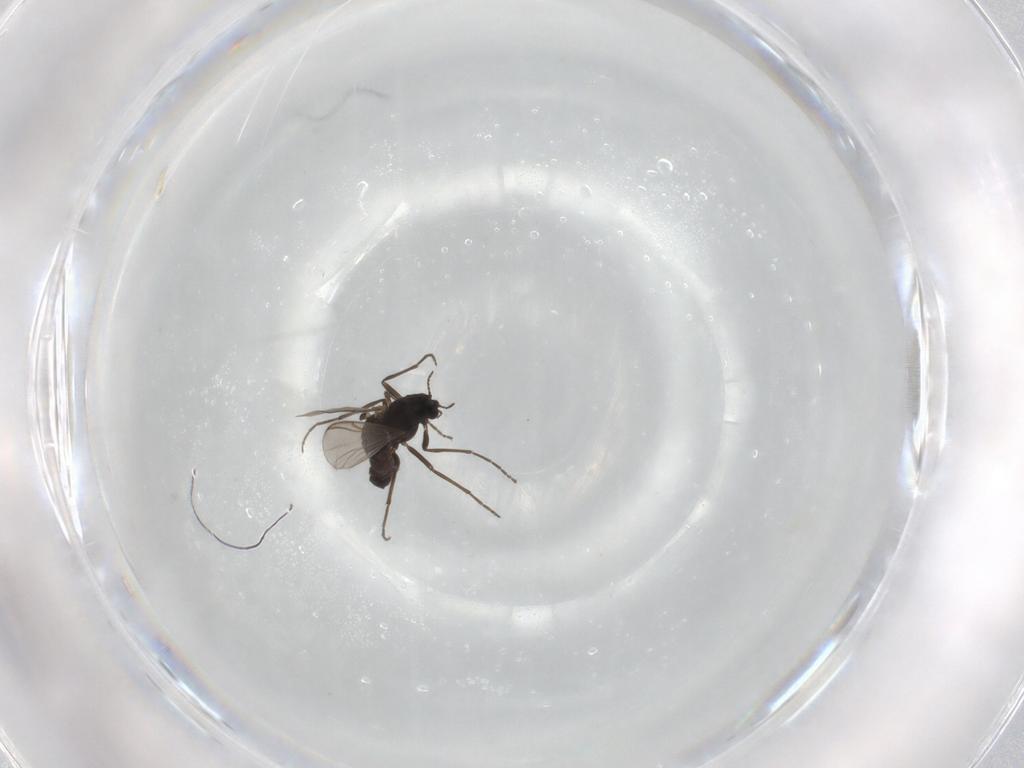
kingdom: Animalia
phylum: Arthropoda
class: Insecta
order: Diptera
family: Chironomidae
